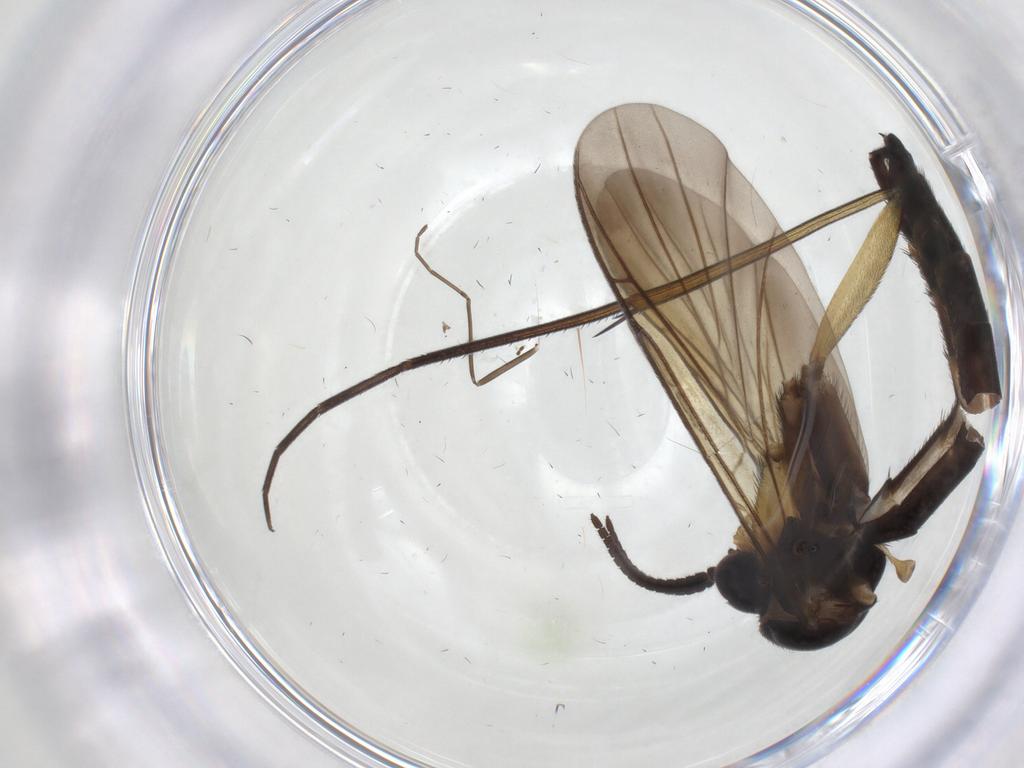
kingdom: Animalia
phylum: Arthropoda
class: Insecta
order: Diptera
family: Keroplatidae
